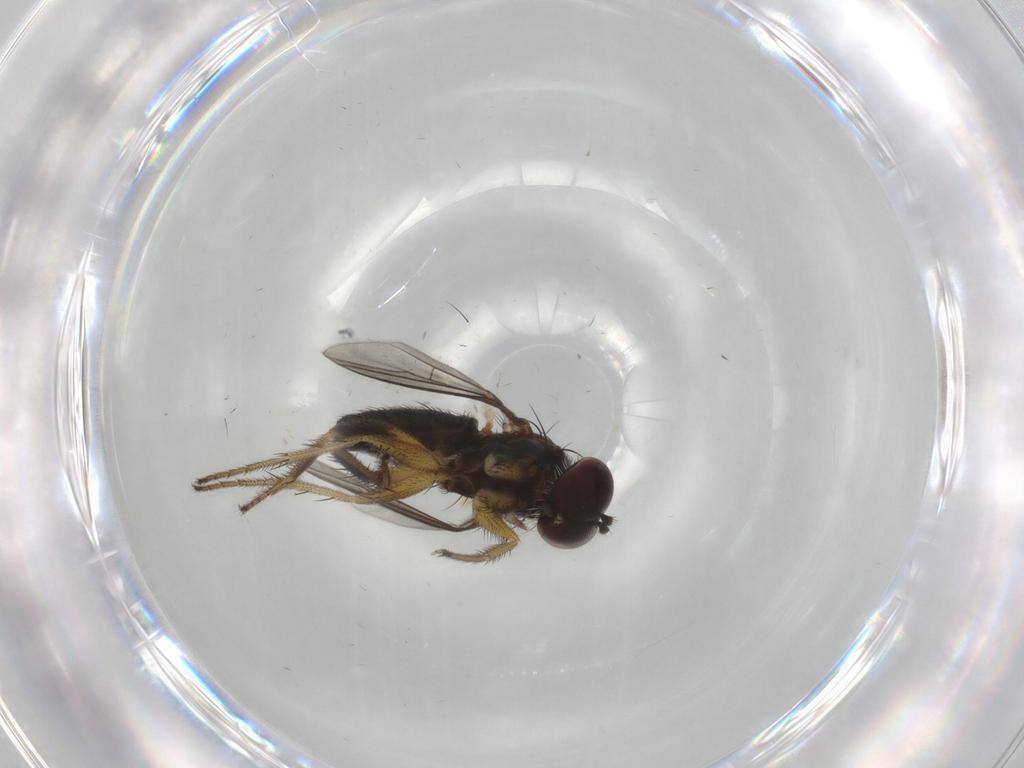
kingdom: Animalia
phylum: Arthropoda
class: Insecta
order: Diptera
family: Dolichopodidae
